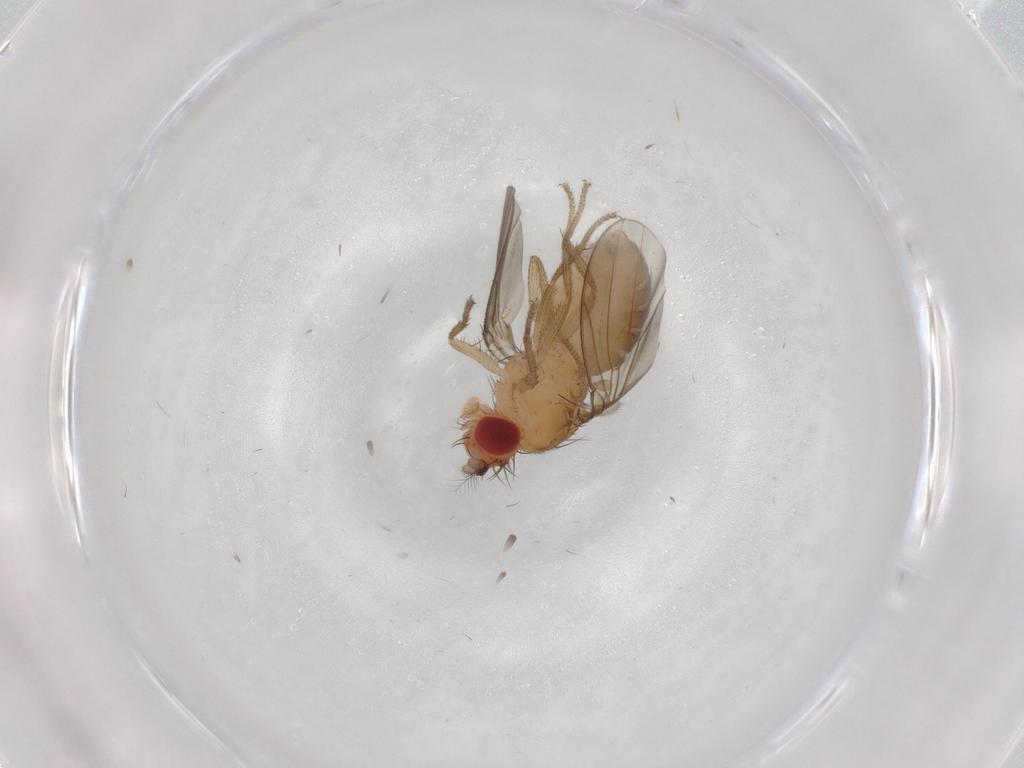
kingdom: Animalia
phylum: Arthropoda
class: Insecta
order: Diptera
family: Drosophilidae
